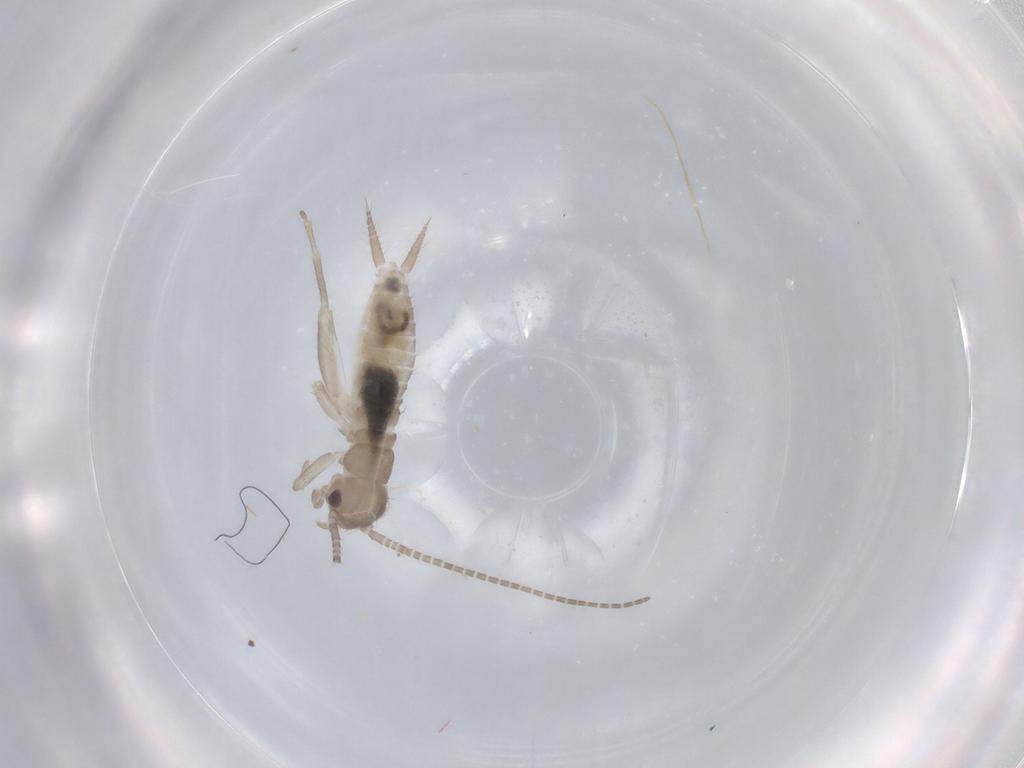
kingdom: Animalia
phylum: Arthropoda
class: Insecta
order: Orthoptera
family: Mogoplistidae
